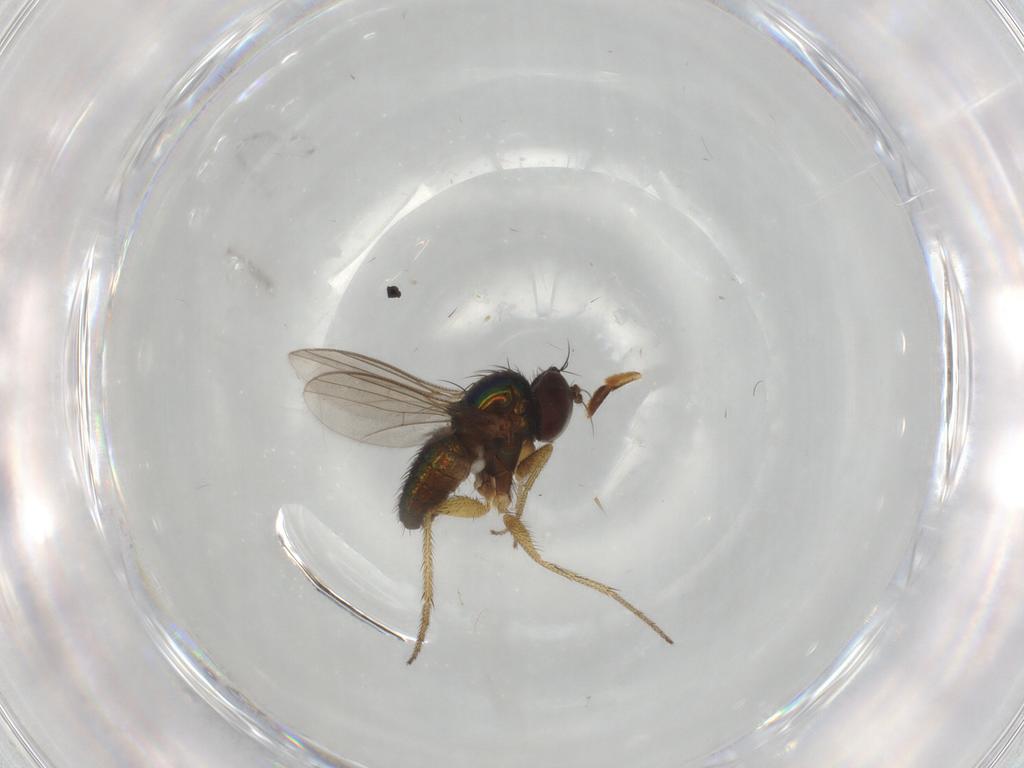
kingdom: Animalia
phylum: Arthropoda
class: Insecta
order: Diptera
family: Dolichopodidae
